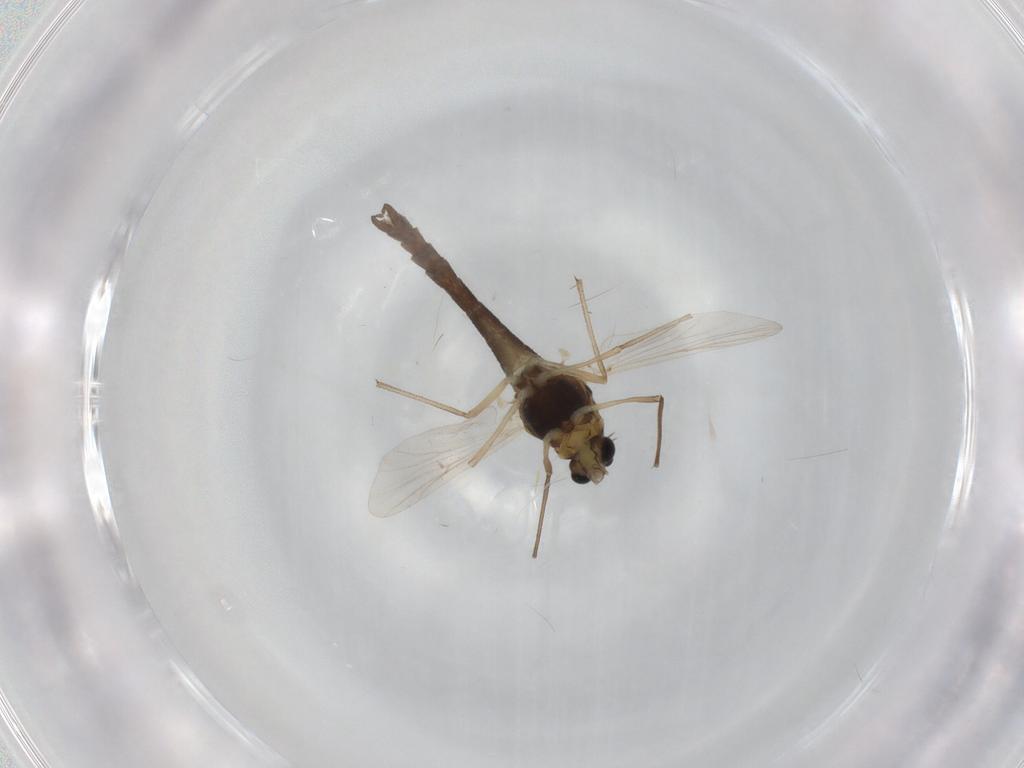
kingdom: Animalia
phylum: Arthropoda
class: Insecta
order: Diptera
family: Chironomidae
